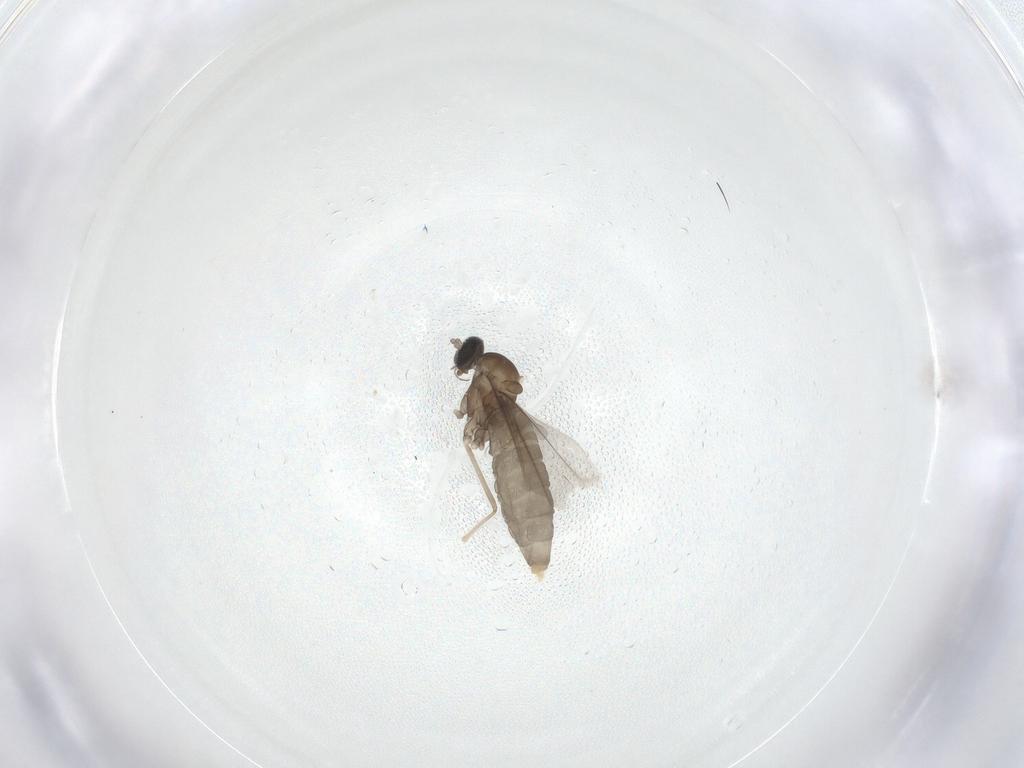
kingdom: Animalia
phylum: Arthropoda
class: Insecta
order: Diptera
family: Cecidomyiidae
